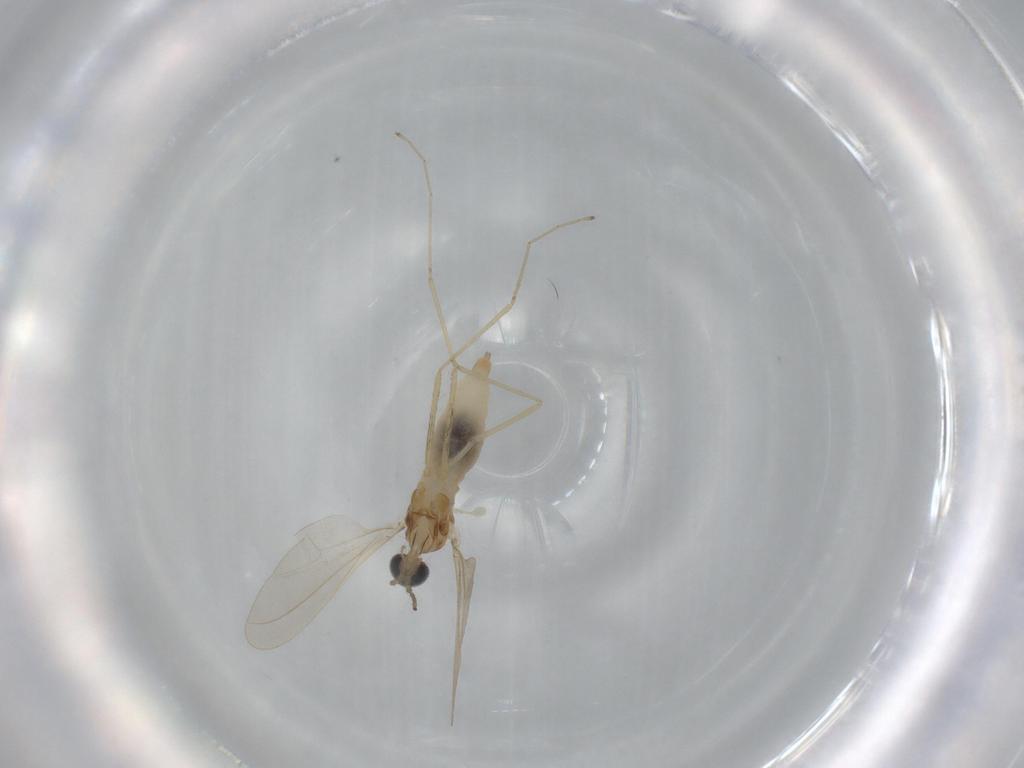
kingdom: Animalia
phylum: Arthropoda
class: Insecta
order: Diptera
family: Cecidomyiidae
